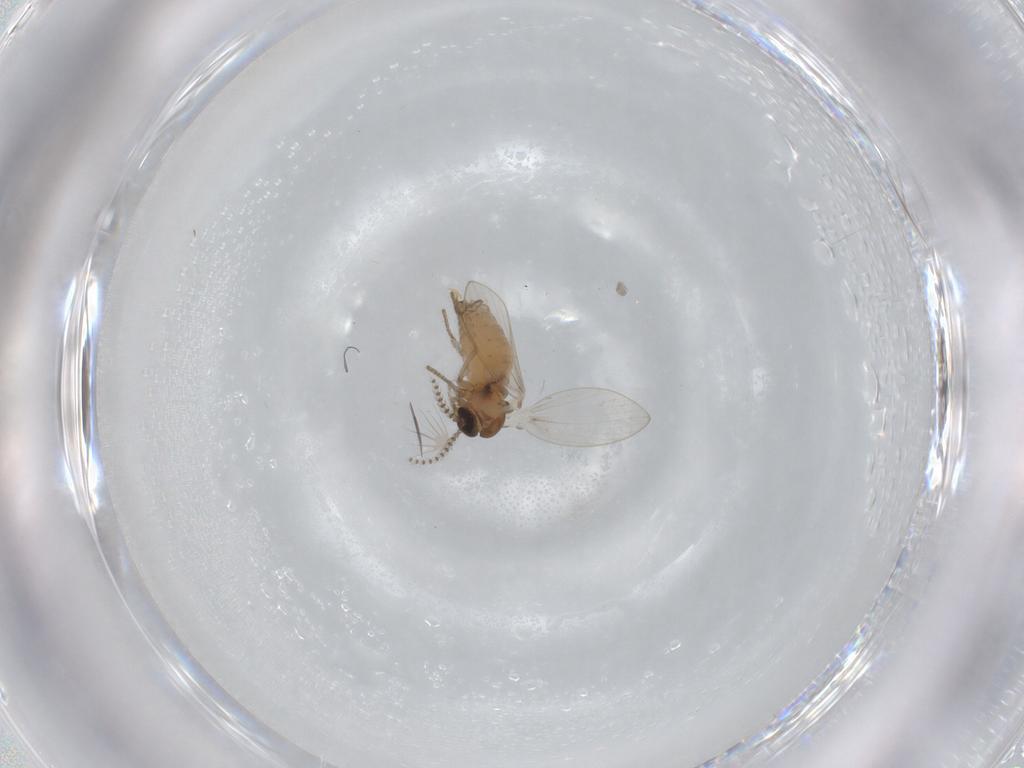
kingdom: Animalia
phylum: Arthropoda
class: Insecta
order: Diptera
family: Psychodidae
